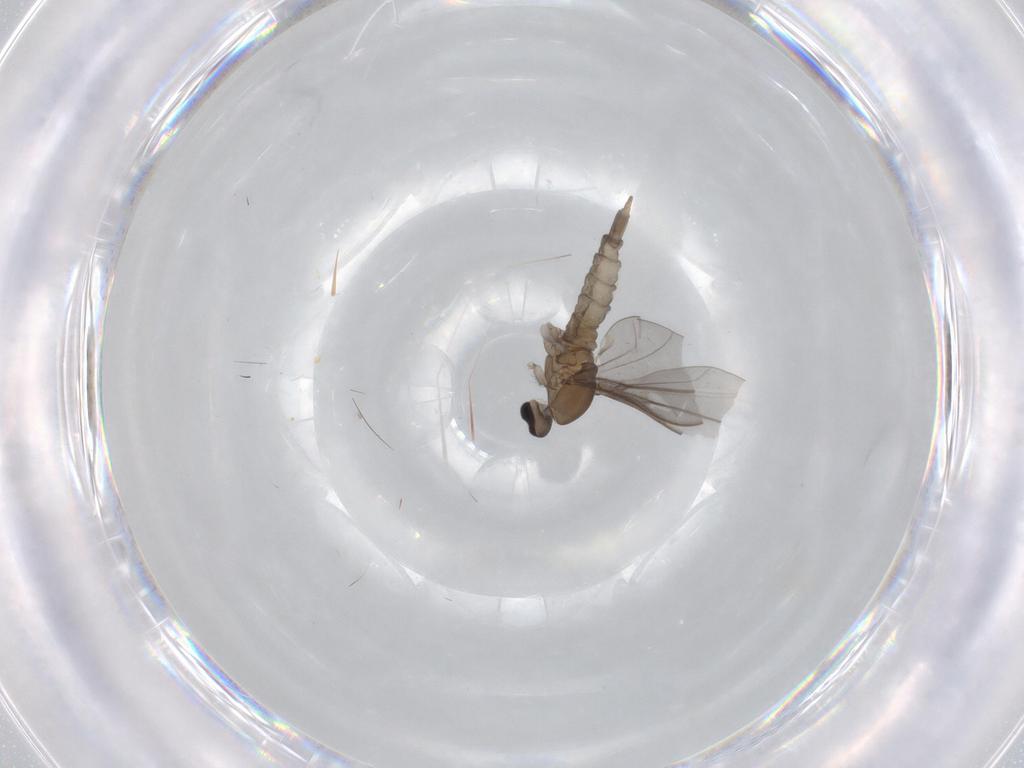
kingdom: Animalia
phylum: Arthropoda
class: Insecta
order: Diptera
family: Cecidomyiidae
